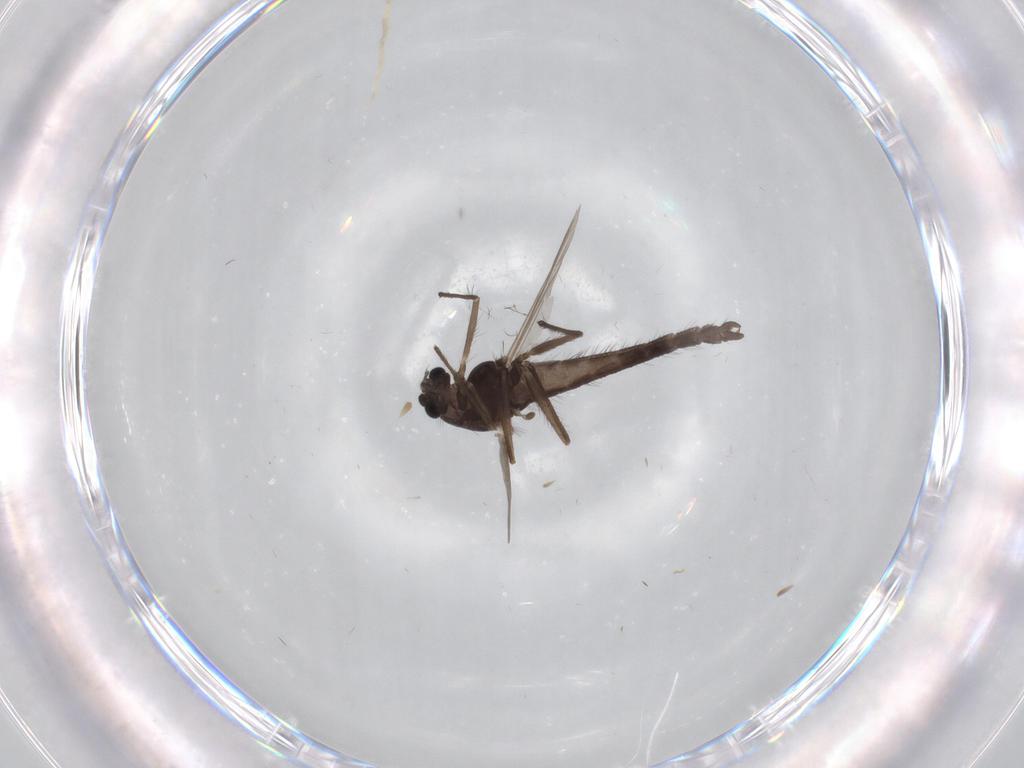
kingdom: Animalia
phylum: Arthropoda
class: Insecta
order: Diptera
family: Chironomidae
